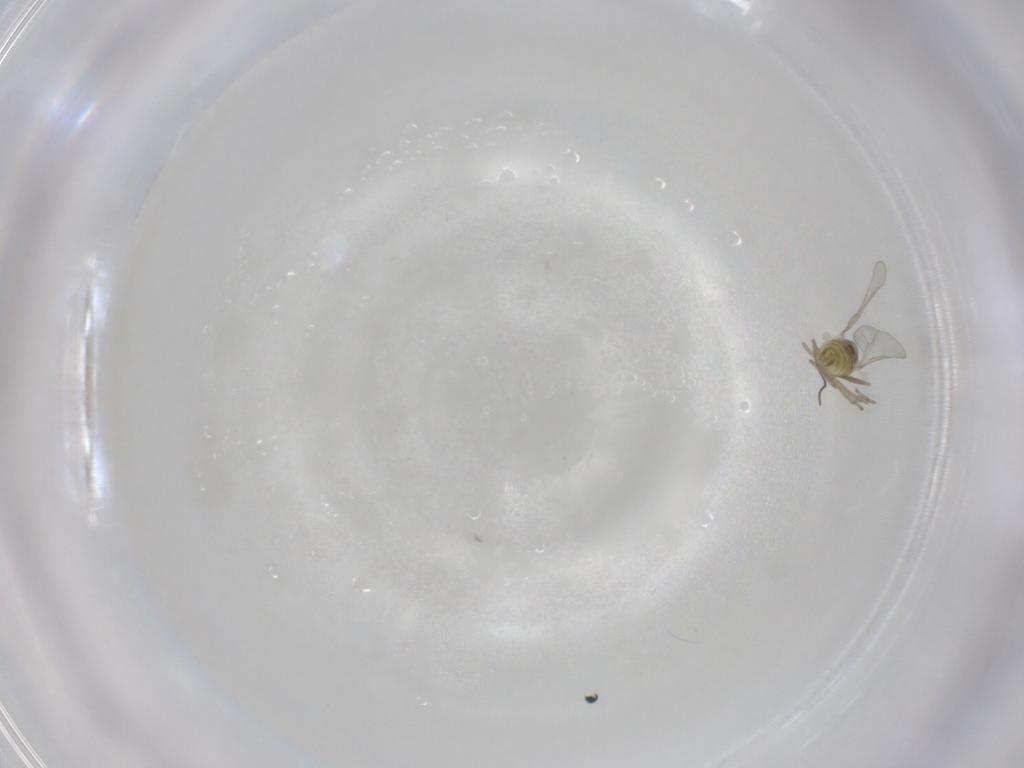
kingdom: Animalia
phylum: Arthropoda
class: Insecta
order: Diptera
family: Cecidomyiidae
